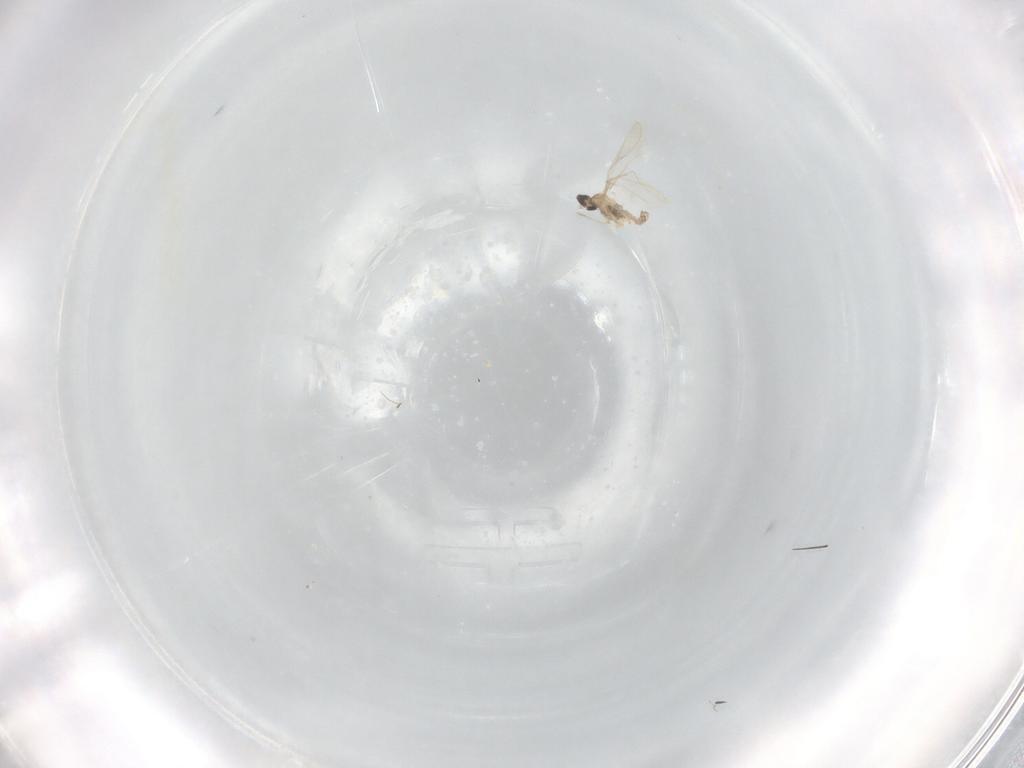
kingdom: Animalia
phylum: Arthropoda
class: Insecta
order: Diptera
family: Cecidomyiidae
